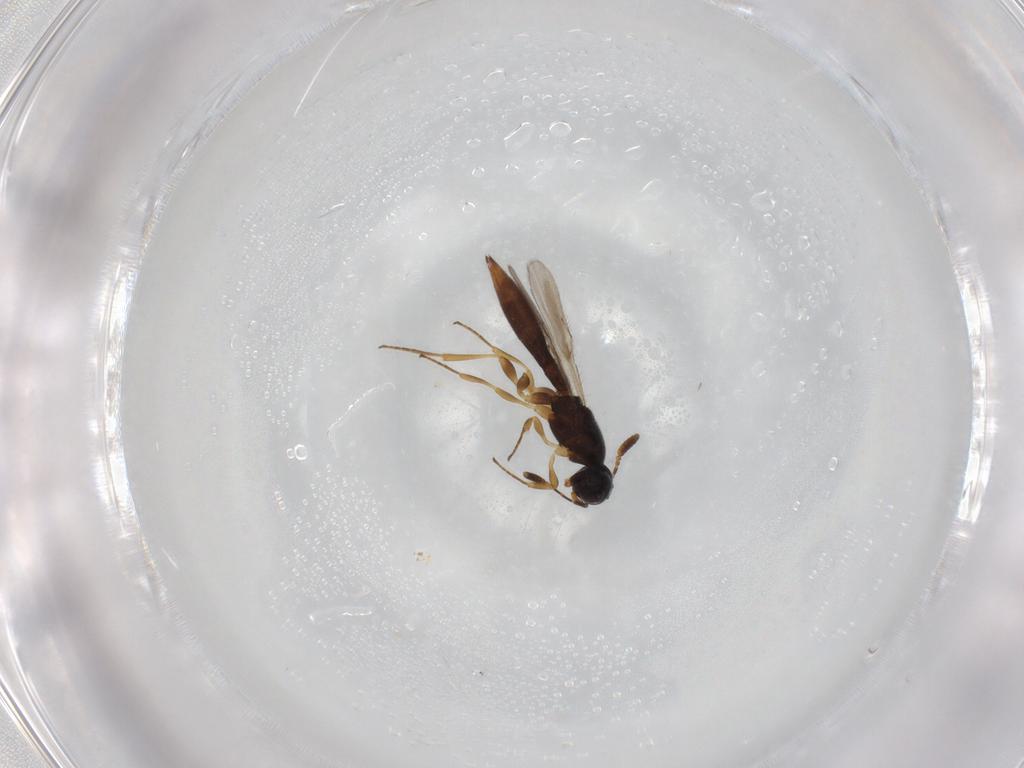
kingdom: Animalia
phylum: Arthropoda
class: Insecta
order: Hymenoptera
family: Scelionidae
